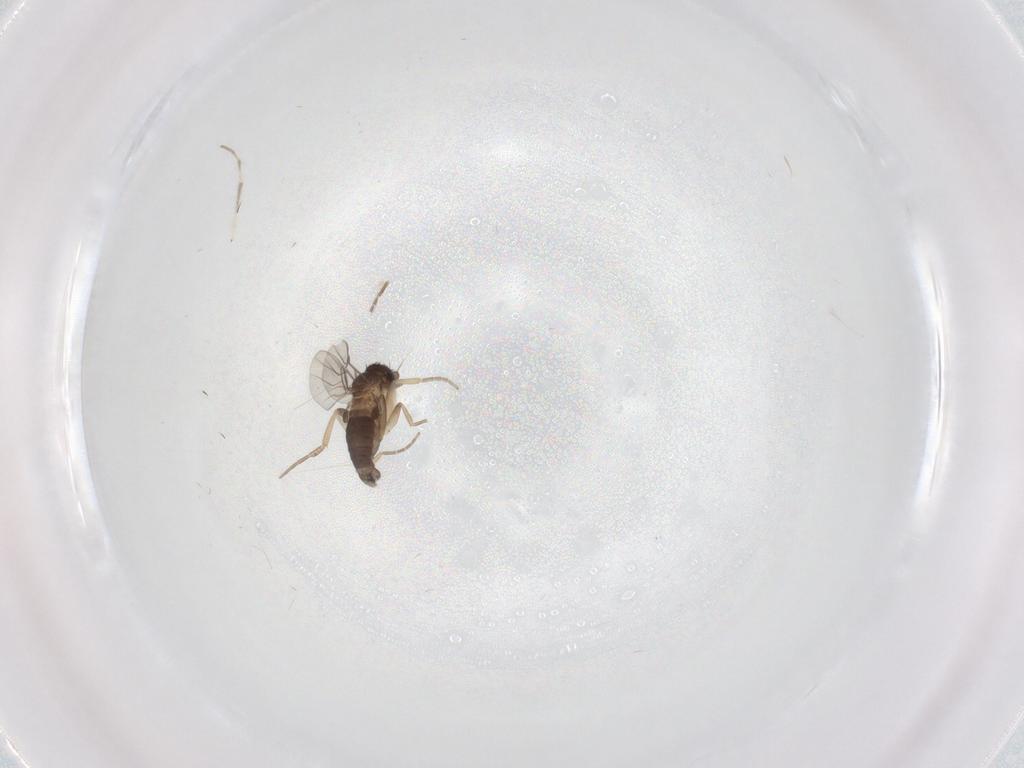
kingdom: Animalia
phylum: Arthropoda
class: Insecta
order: Diptera
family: Phoridae
